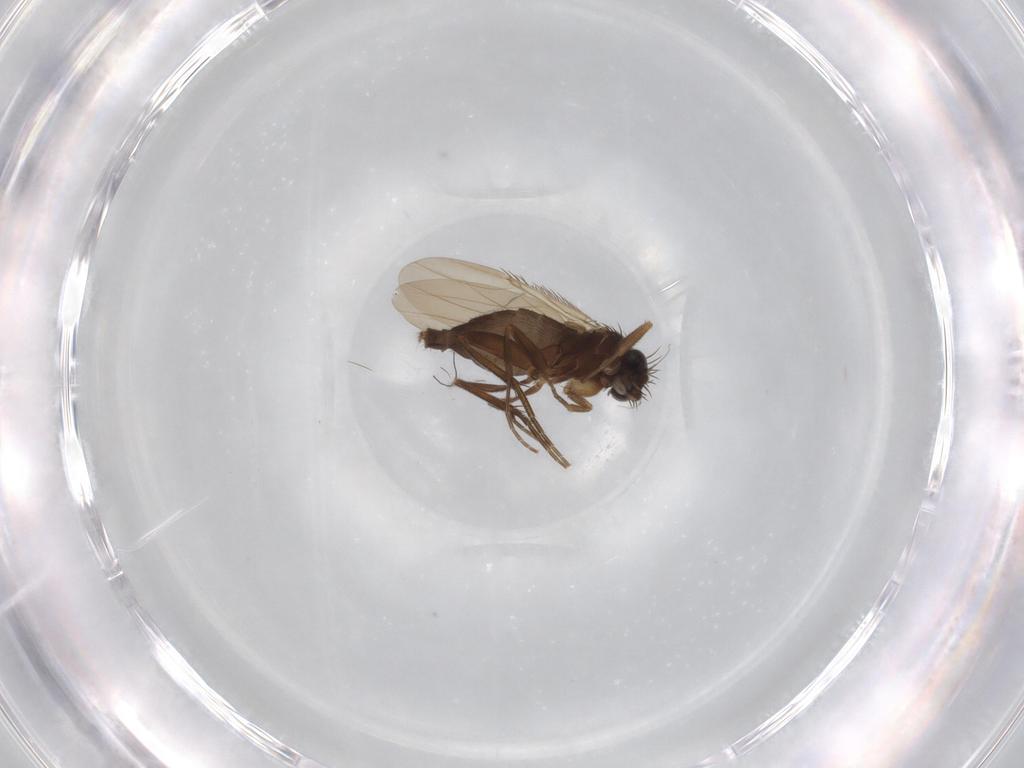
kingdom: Animalia
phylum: Arthropoda
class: Insecta
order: Diptera
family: Phoridae
